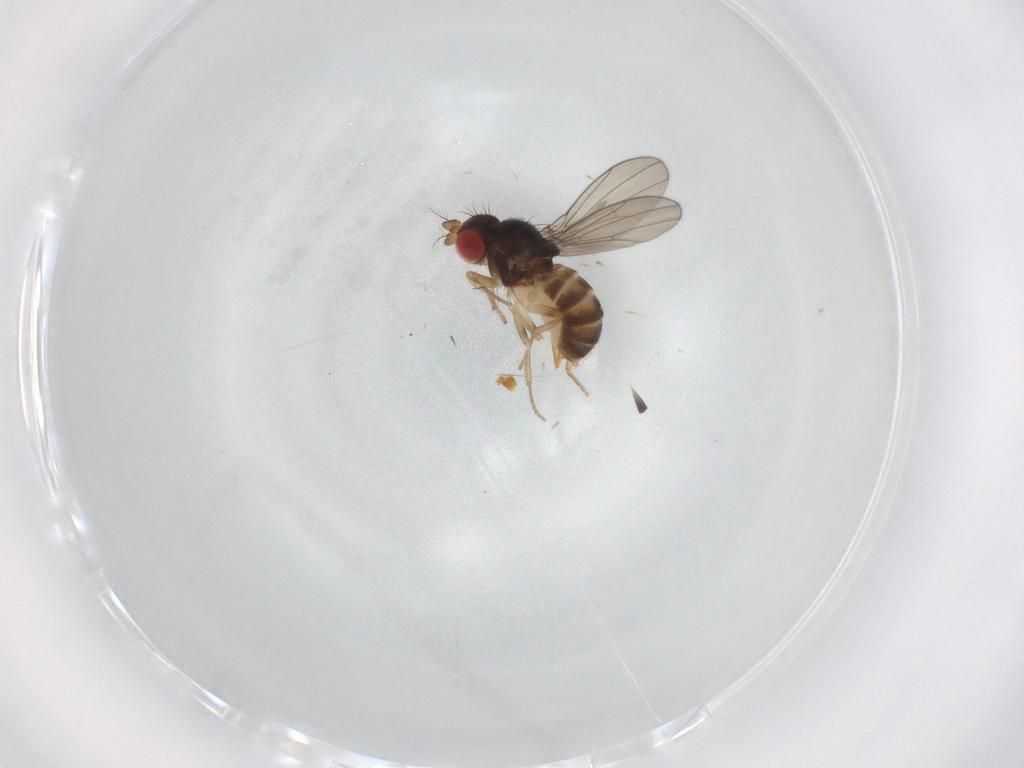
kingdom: Animalia
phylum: Arthropoda
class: Insecta
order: Diptera
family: Drosophilidae
